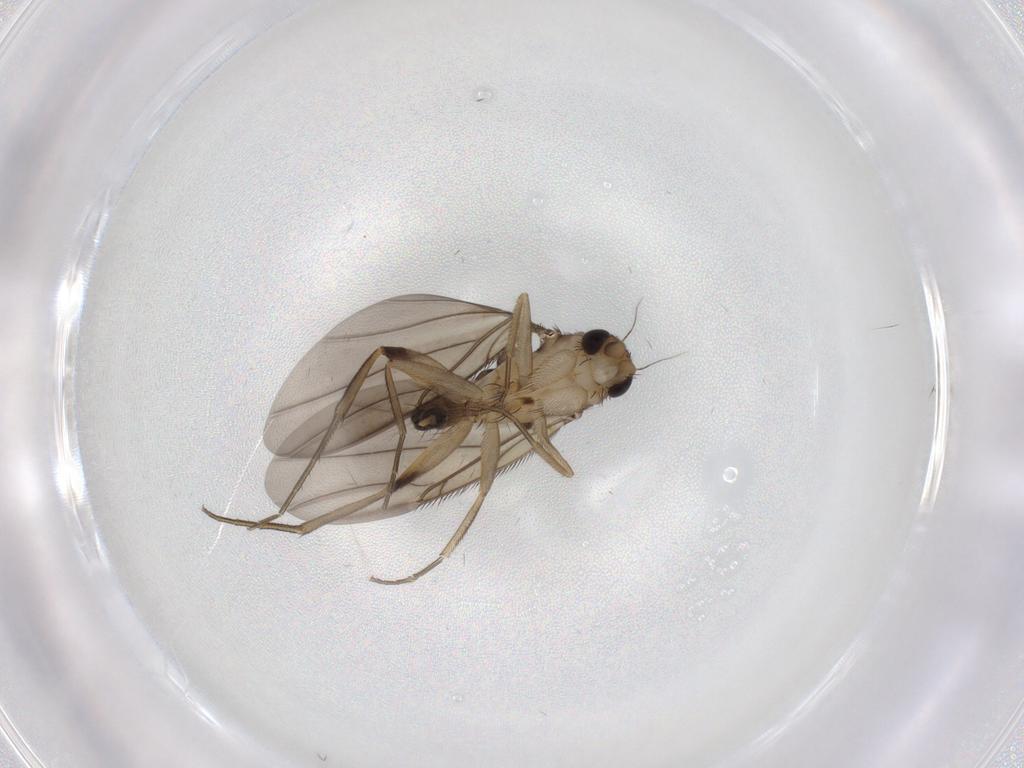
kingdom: Animalia
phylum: Arthropoda
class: Insecta
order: Diptera
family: Phoridae
